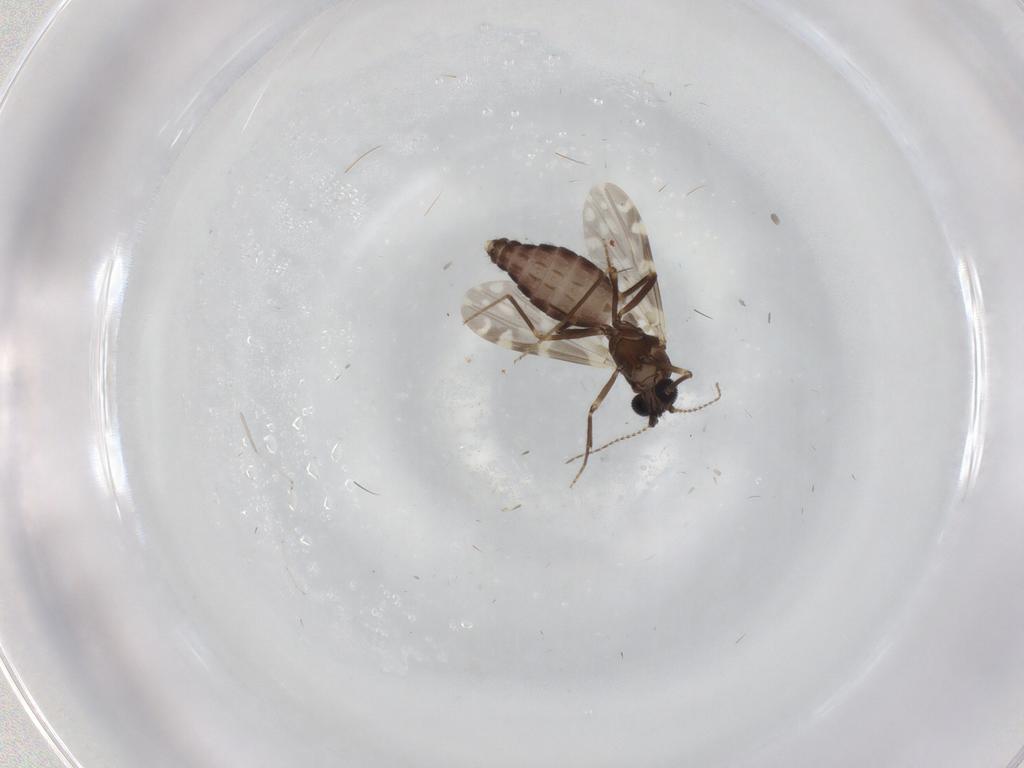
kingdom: Animalia
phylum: Arthropoda
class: Insecta
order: Diptera
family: Ceratopogonidae
